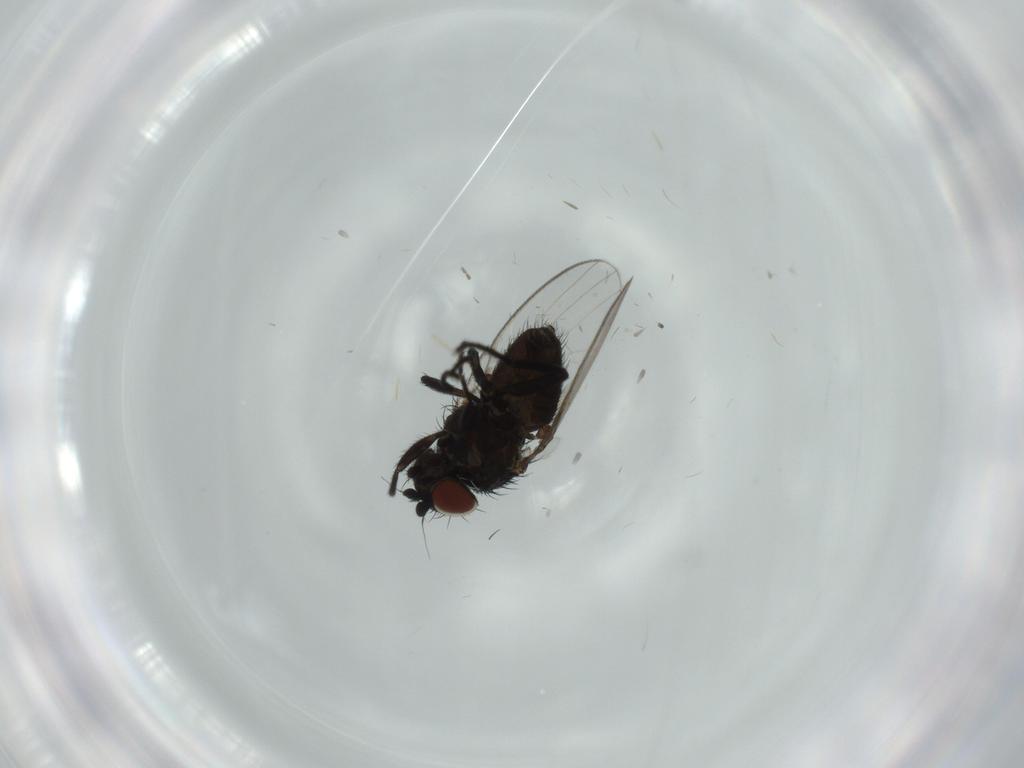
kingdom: Animalia
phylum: Arthropoda
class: Insecta
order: Diptera
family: Milichiidae
